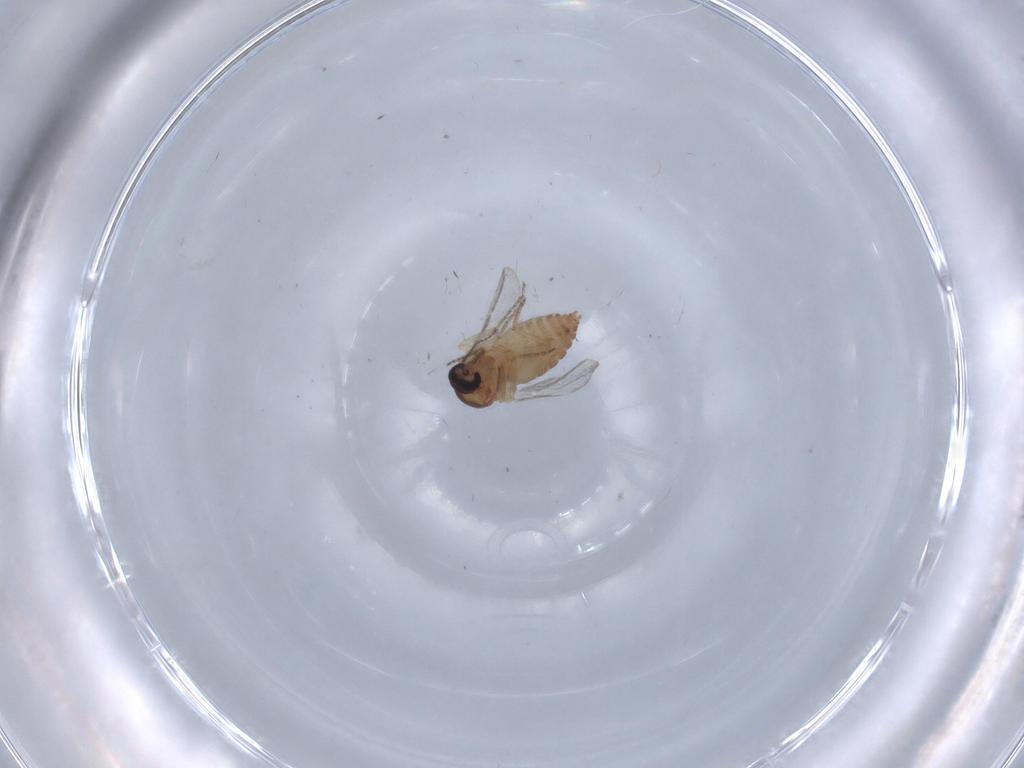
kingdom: Animalia
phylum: Arthropoda
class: Insecta
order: Diptera
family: Ceratopogonidae
